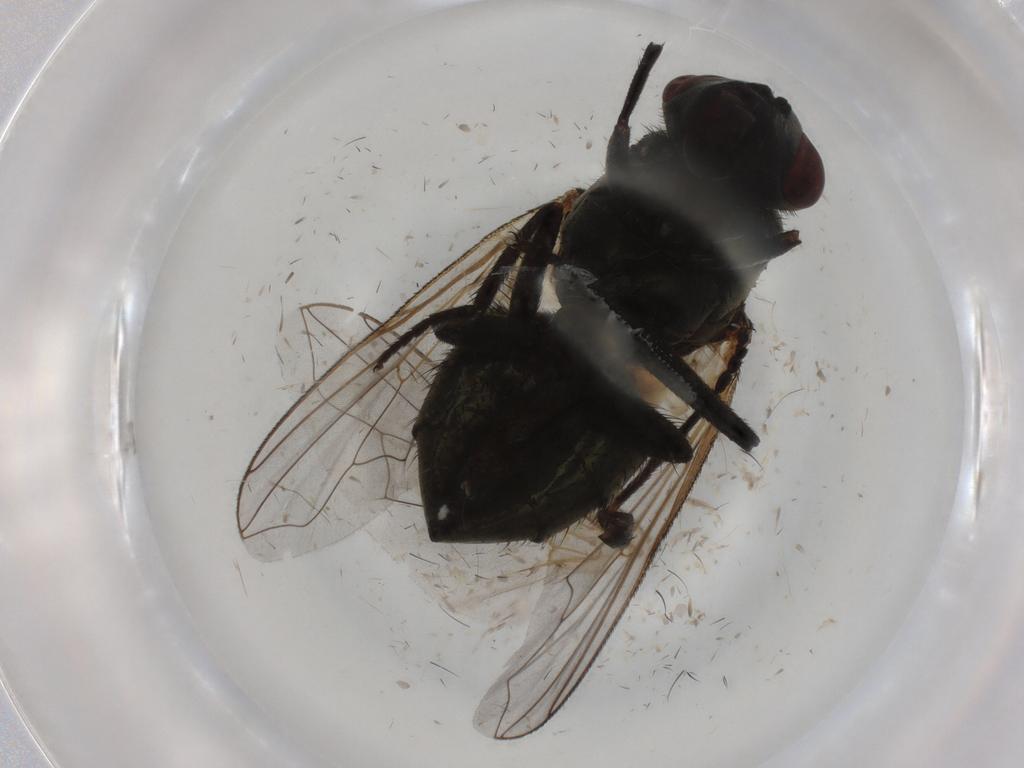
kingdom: Animalia
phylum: Arthropoda
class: Insecta
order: Diptera
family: Muscidae
